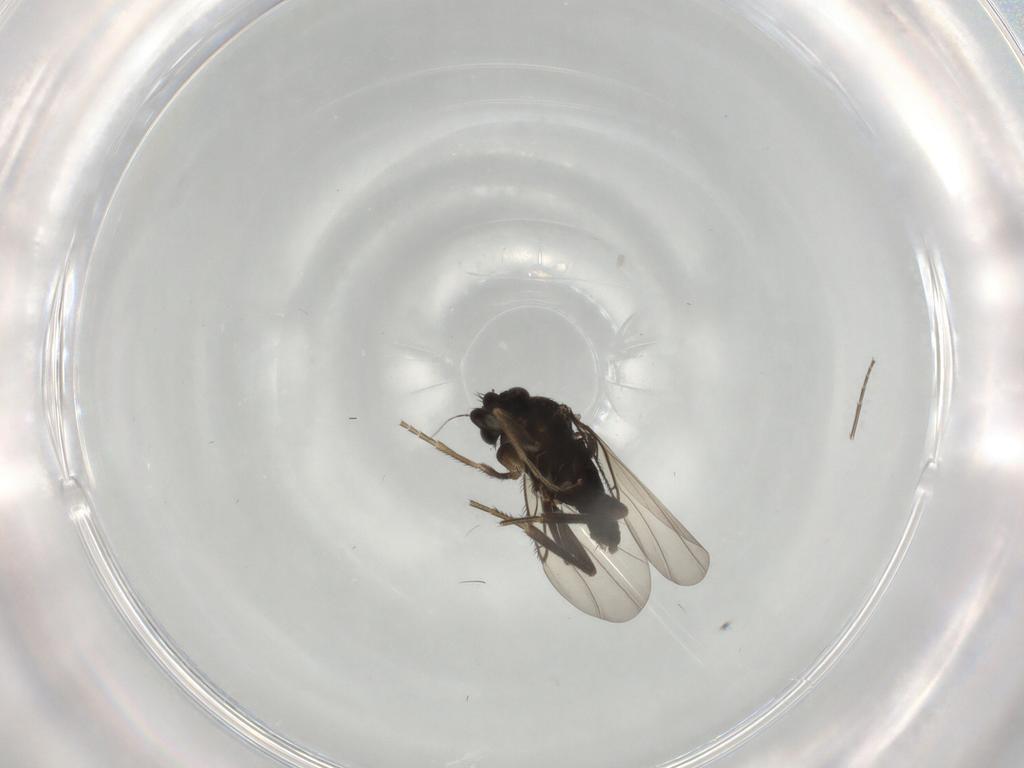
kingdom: Animalia
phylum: Arthropoda
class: Insecta
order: Diptera
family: Phoridae
